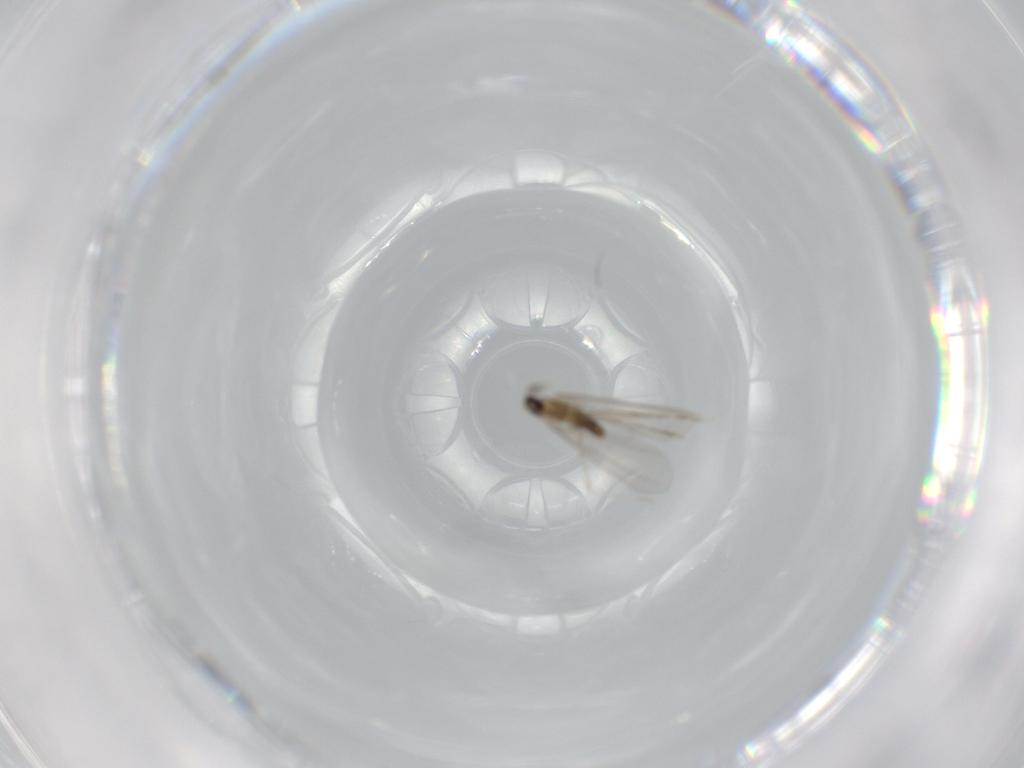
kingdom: Animalia
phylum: Arthropoda
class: Insecta
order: Diptera
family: Cecidomyiidae
